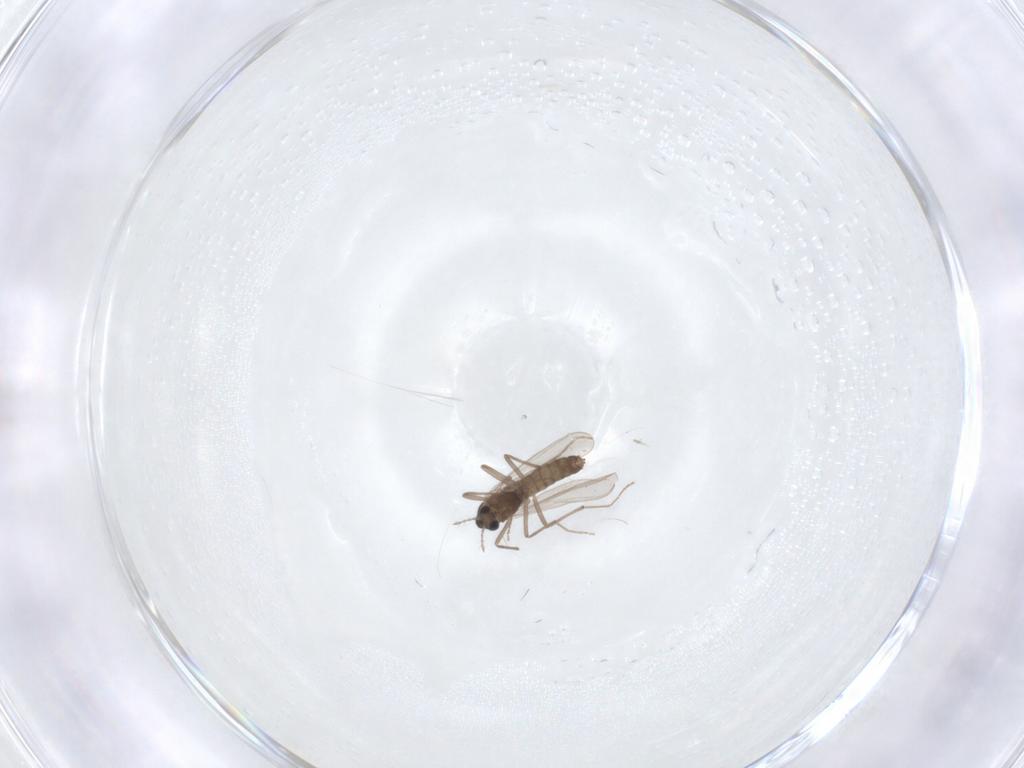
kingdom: Animalia
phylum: Arthropoda
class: Insecta
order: Diptera
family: Chironomidae
